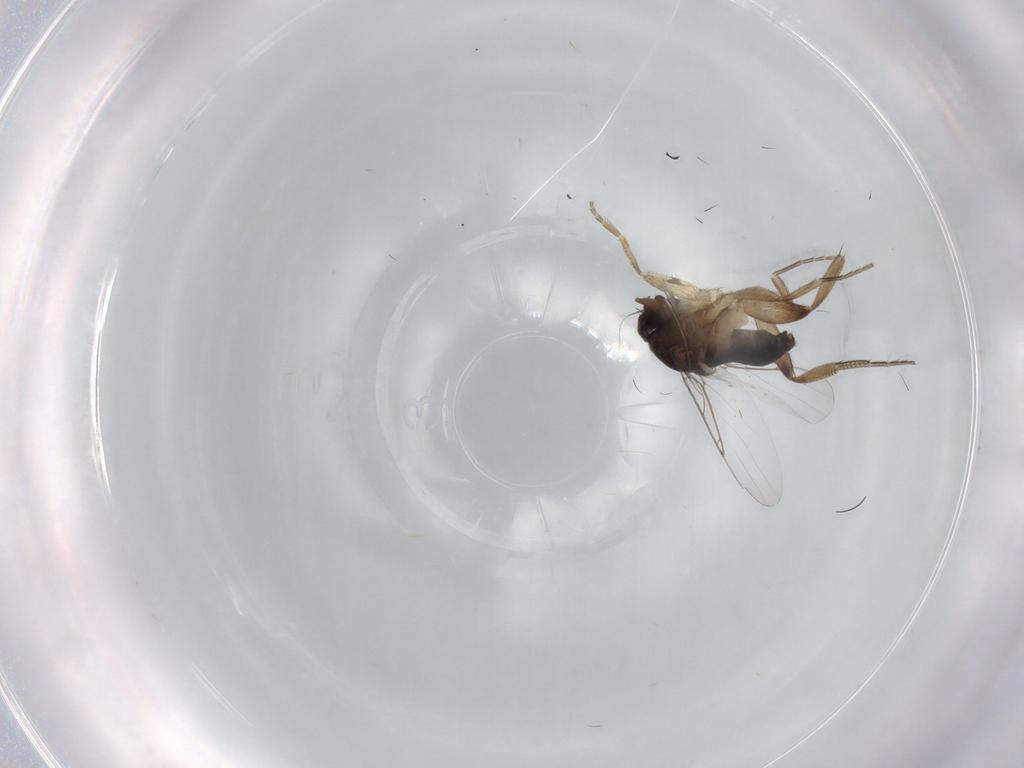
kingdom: Animalia
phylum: Arthropoda
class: Insecta
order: Diptera
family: Phoridae
